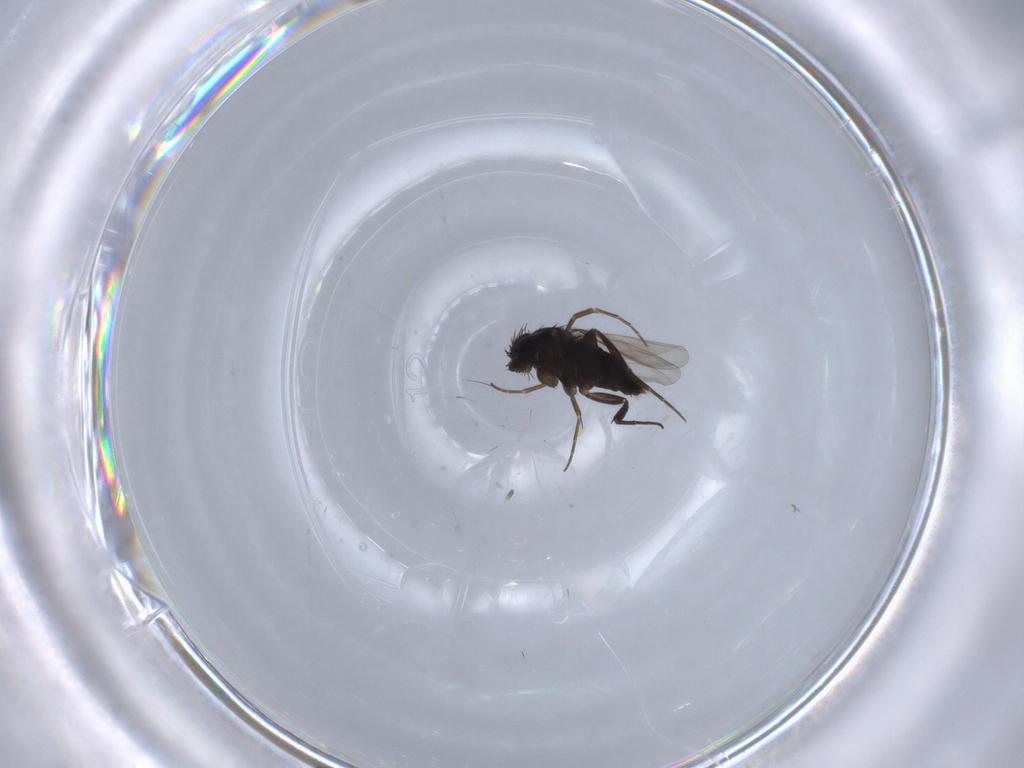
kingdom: Animalia
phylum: Arthropoda
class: Insecta
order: Diptera
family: Phoridae
